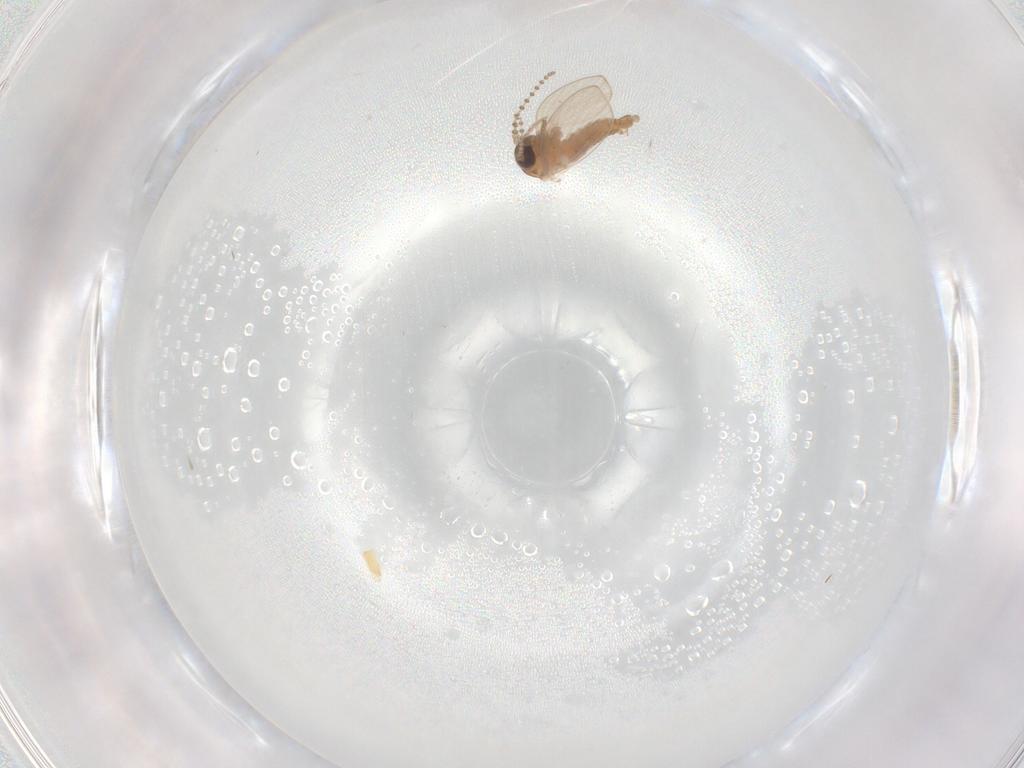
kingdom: Animalia
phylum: Arthropoda
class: Insecta
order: Diptera
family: Psychodidae
